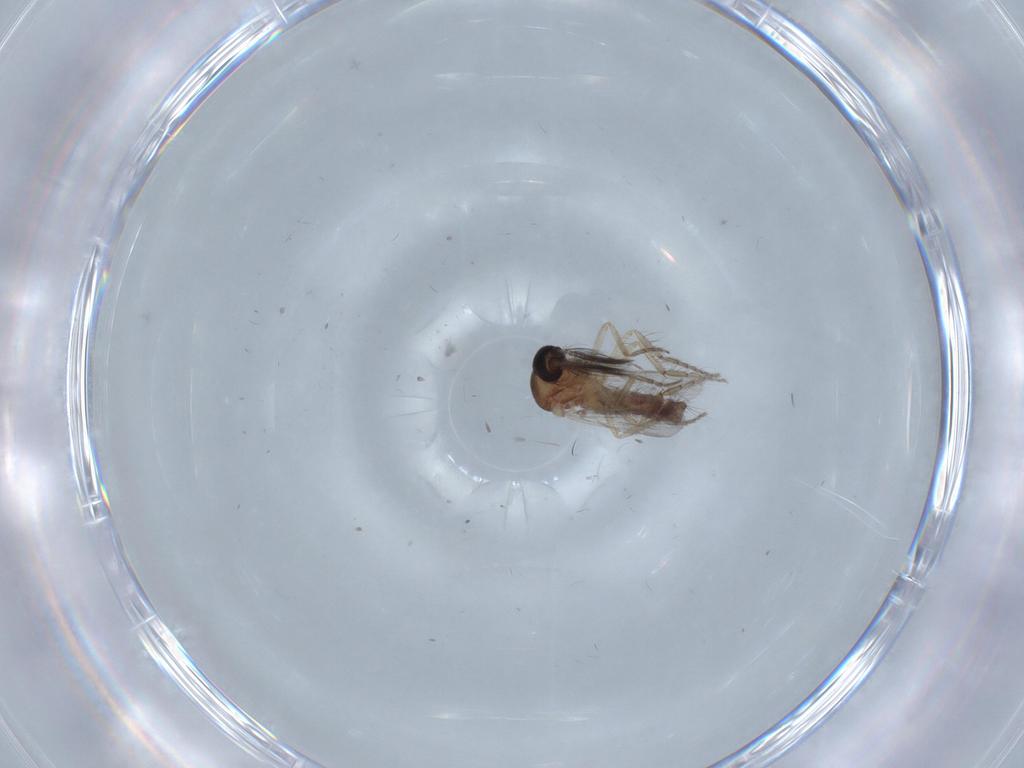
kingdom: Animalia
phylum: Arthropoda
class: Insecta
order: Diptera
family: Ceratopogonidae
